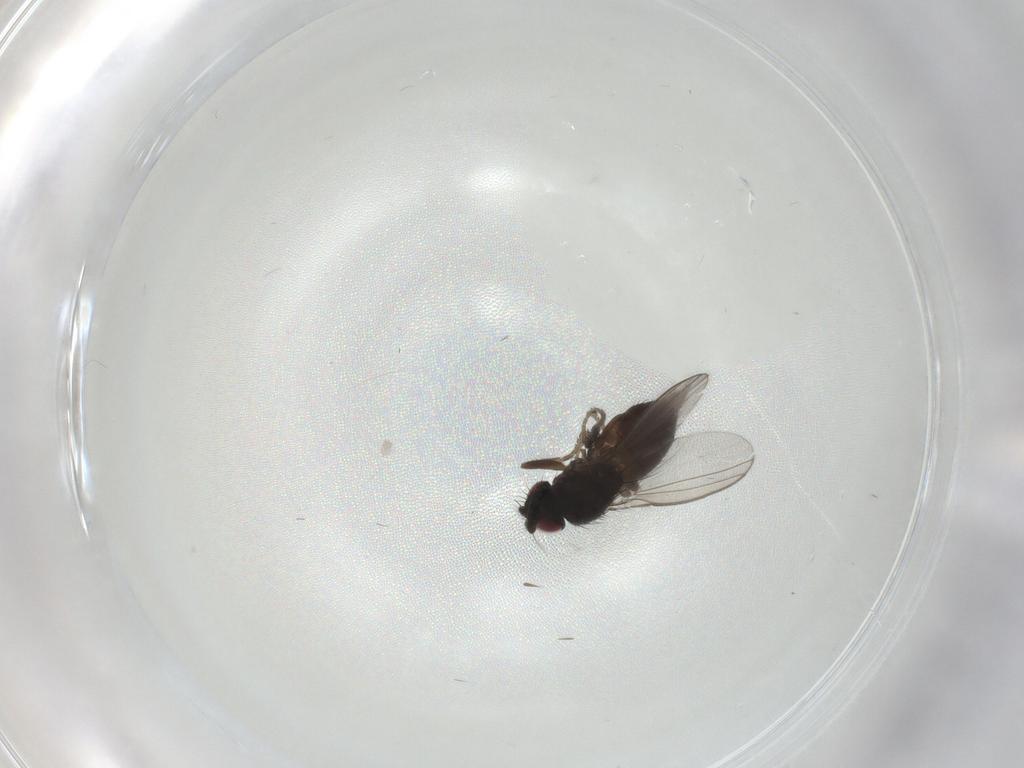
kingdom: Animalia
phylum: Arthropoda
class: Insecta
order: Diptera
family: Milichiidae
